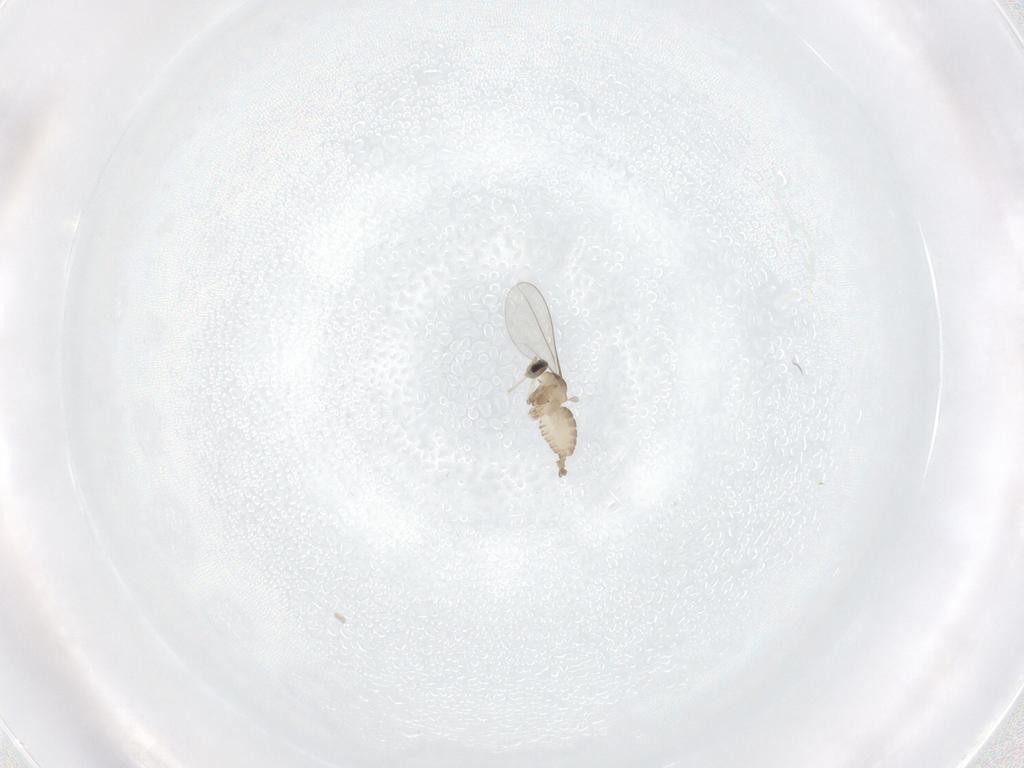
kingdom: Animalia
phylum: Arthropoda
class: Insecta
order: Diptera
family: Cecidomyiidae
